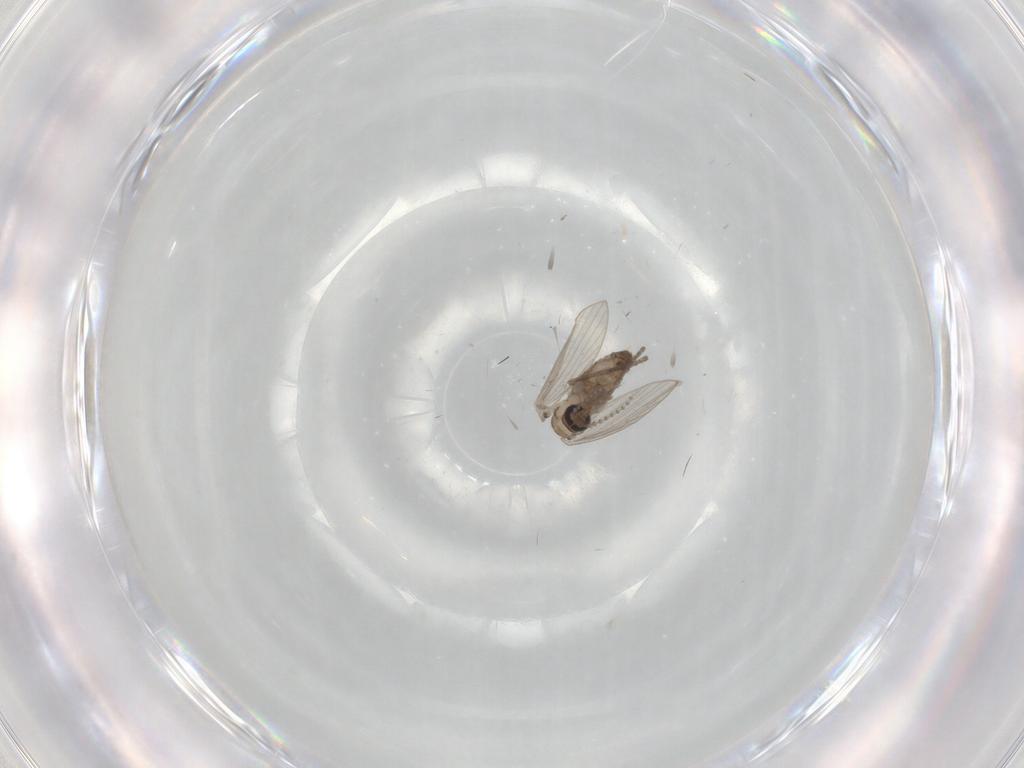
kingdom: Animalia
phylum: Arthropoda
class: Insecta
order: Diptera
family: Psychodidae
